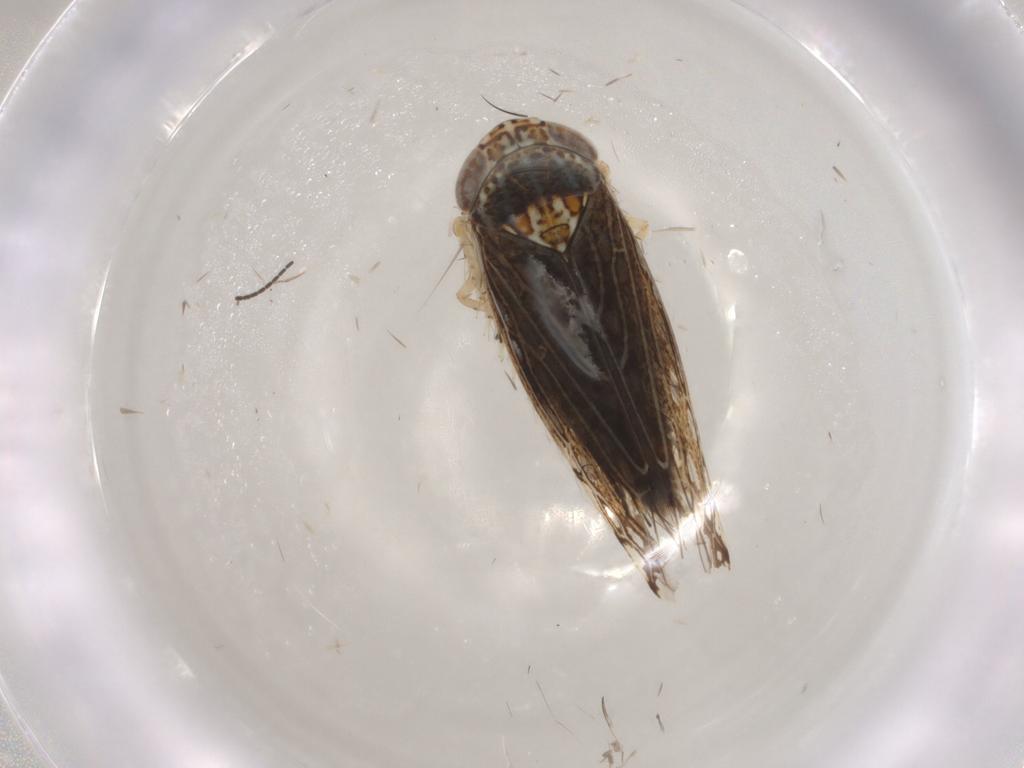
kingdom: Animalia
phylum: Arthropoda
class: Insecta
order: Hemiptera
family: Cicadellidae
